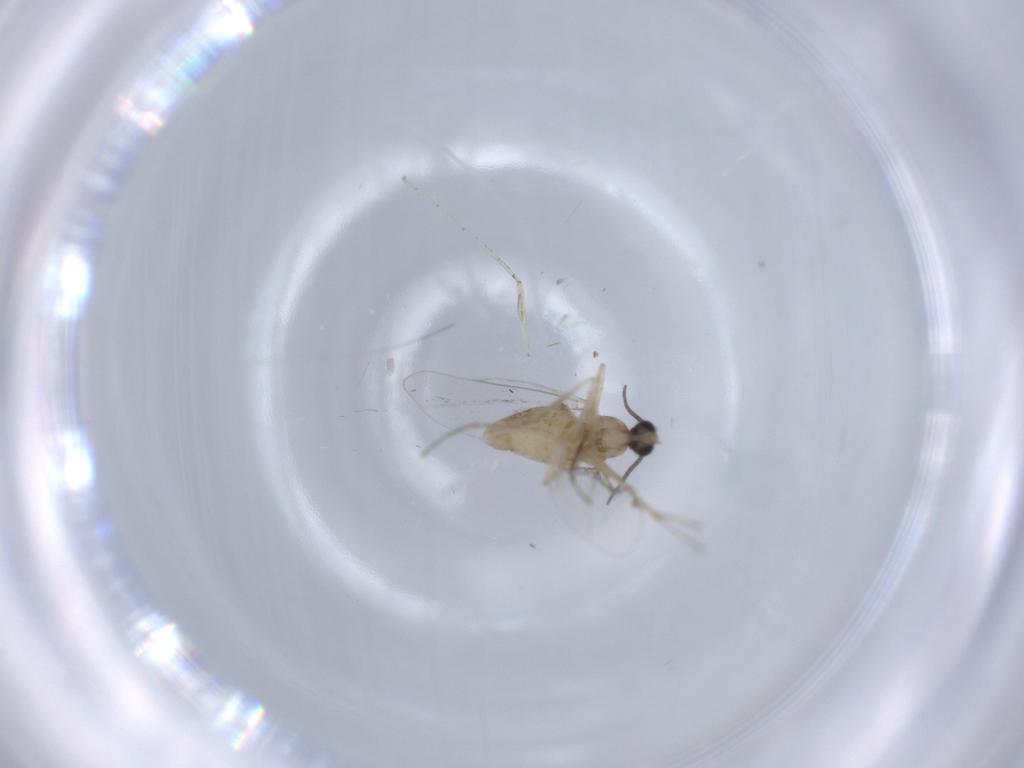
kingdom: Animalia
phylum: Arthropoda
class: Insecta
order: Diptera
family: Cecidomyiidae
